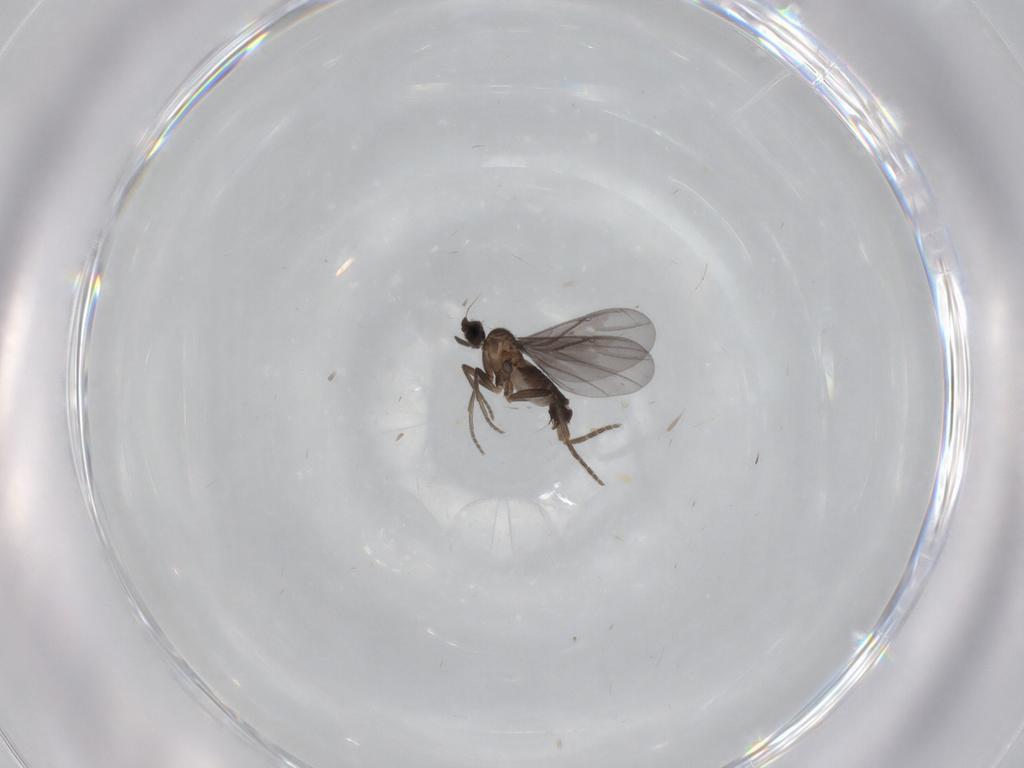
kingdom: Animalia
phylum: Arthropoda
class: Insecta
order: Diptera
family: Phoridae
